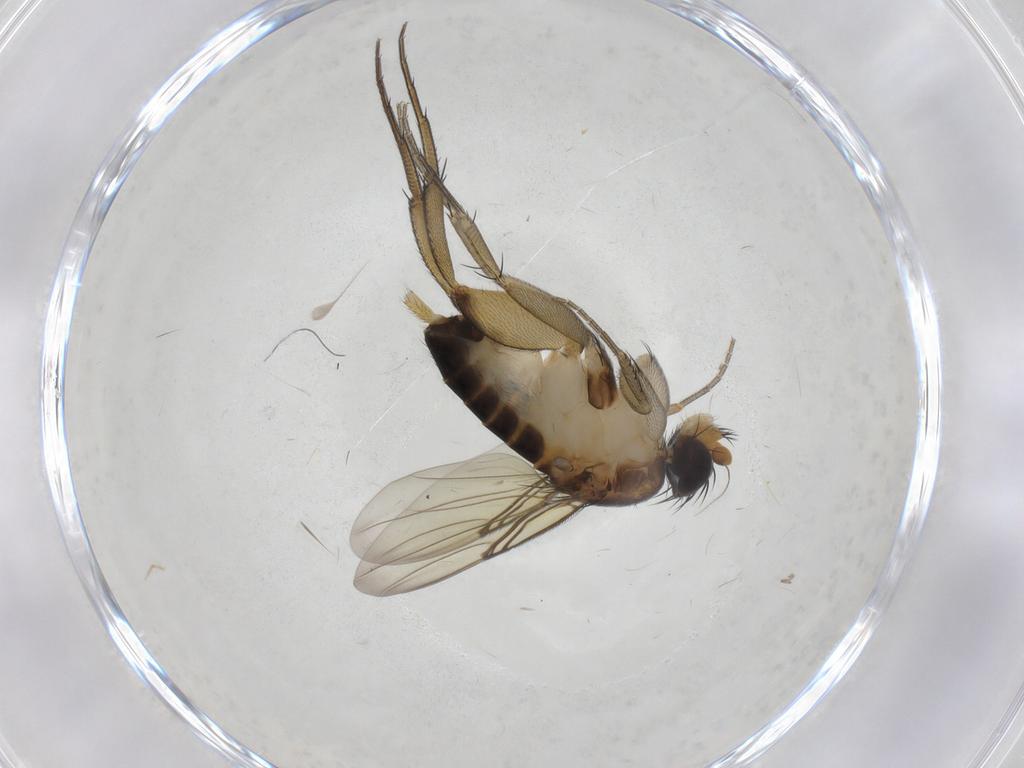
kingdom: Animalia
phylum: Arthropoda
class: Insecta
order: Diptera
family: Phoridae
